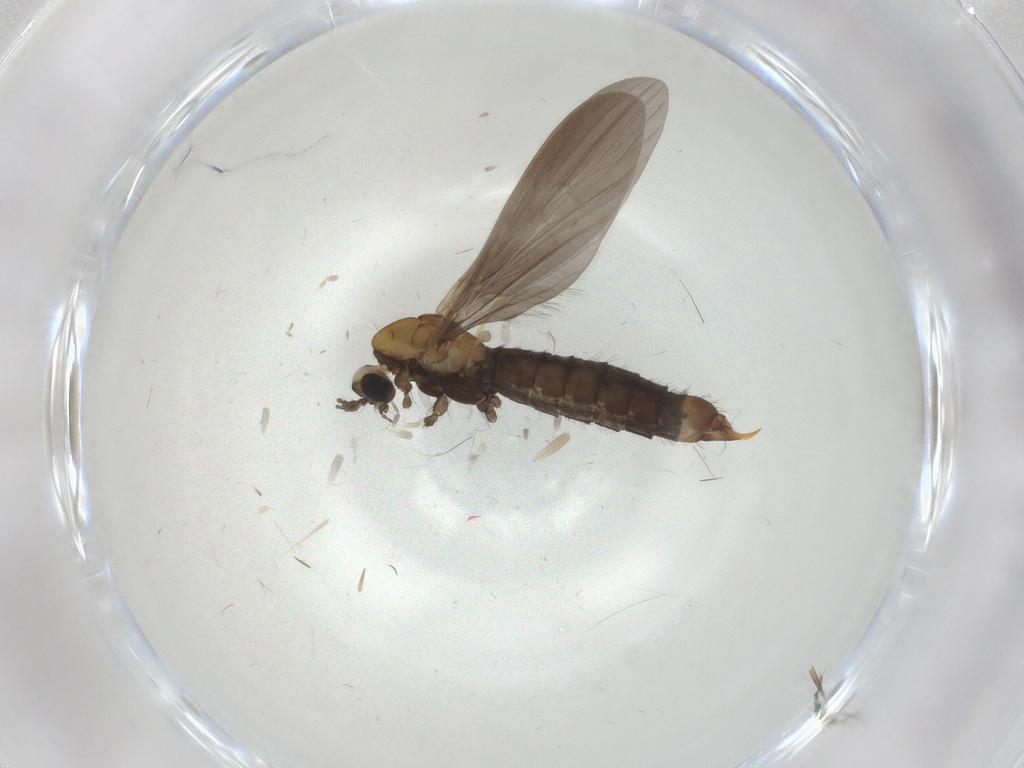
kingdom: Animalia
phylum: Arthropoda
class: Insecta
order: Diptera
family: Limoniidae
